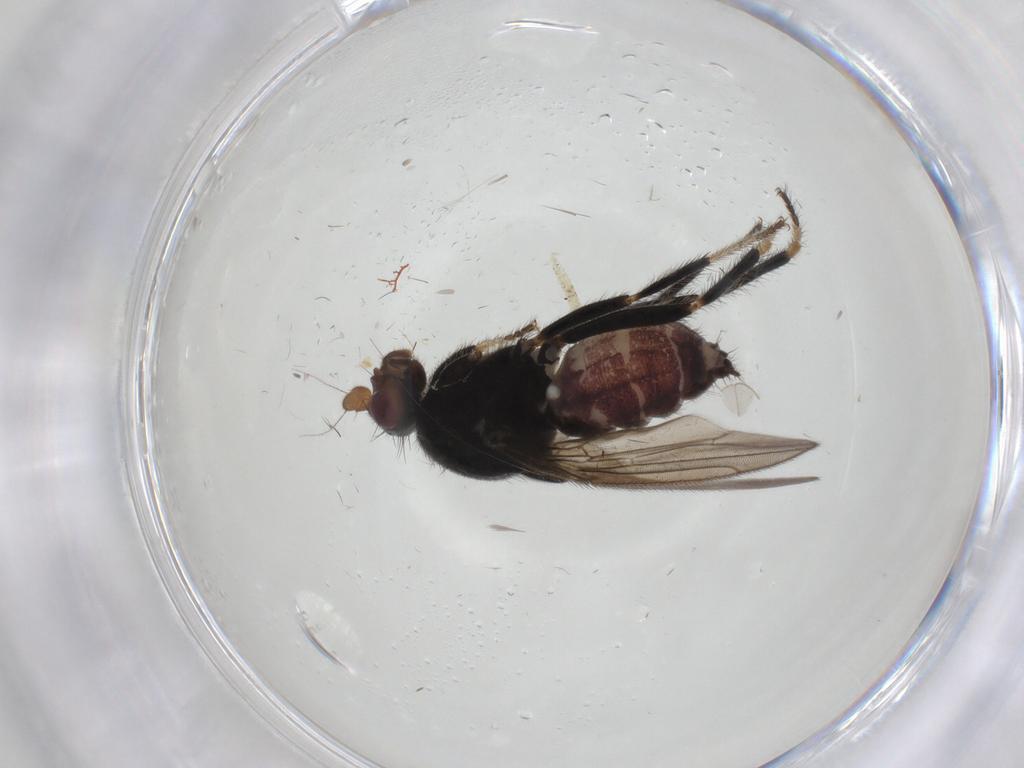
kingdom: Animalia
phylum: Arthropoda
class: Insecta
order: Diptera
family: Sphaeroceridae
